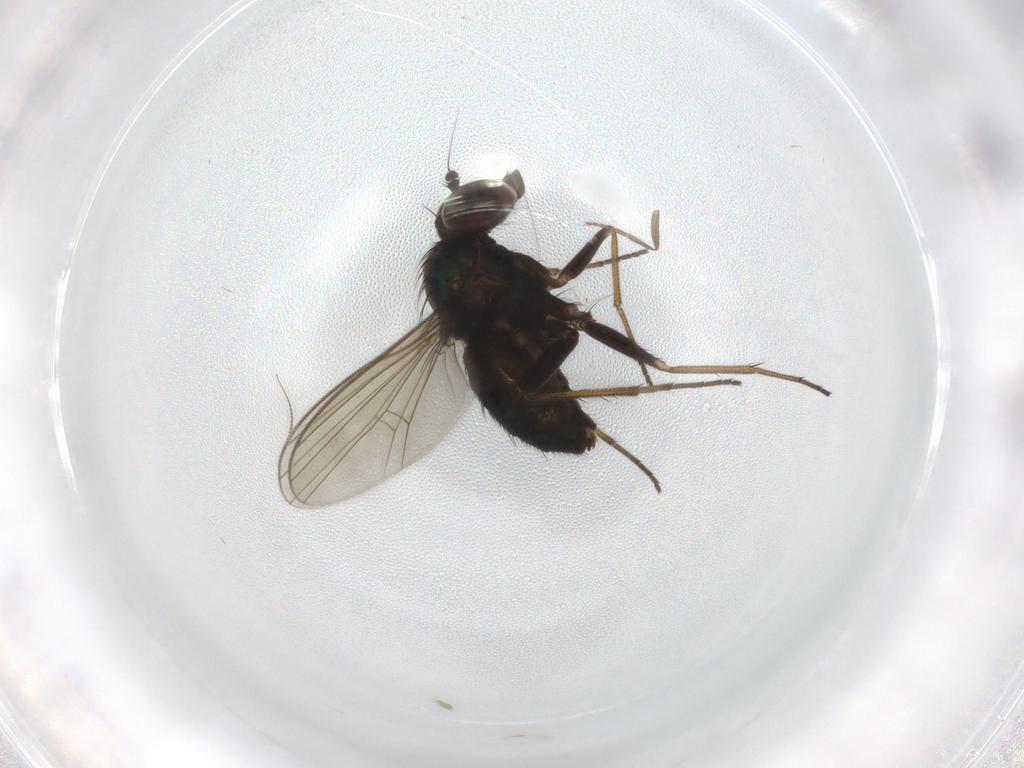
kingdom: Animalia
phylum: Arthropoda
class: Insecta
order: Diptera
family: Dolichopodidae
